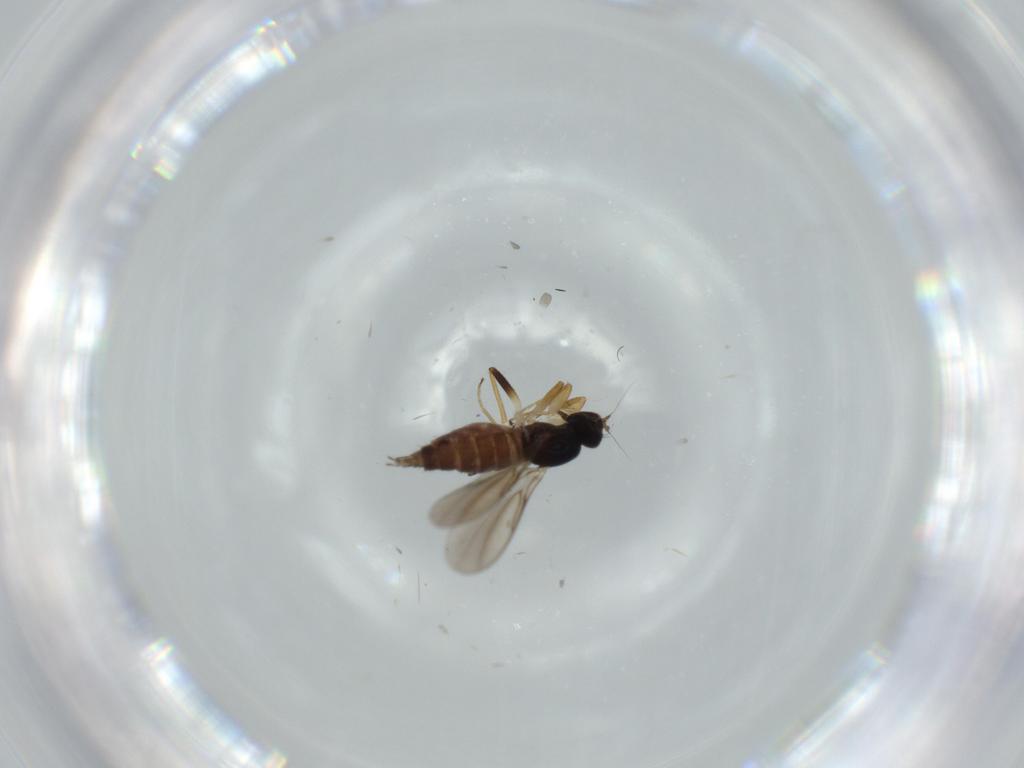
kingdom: Animalia
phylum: Arthropoda
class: Insecta
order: Diptera
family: Hybotidae
